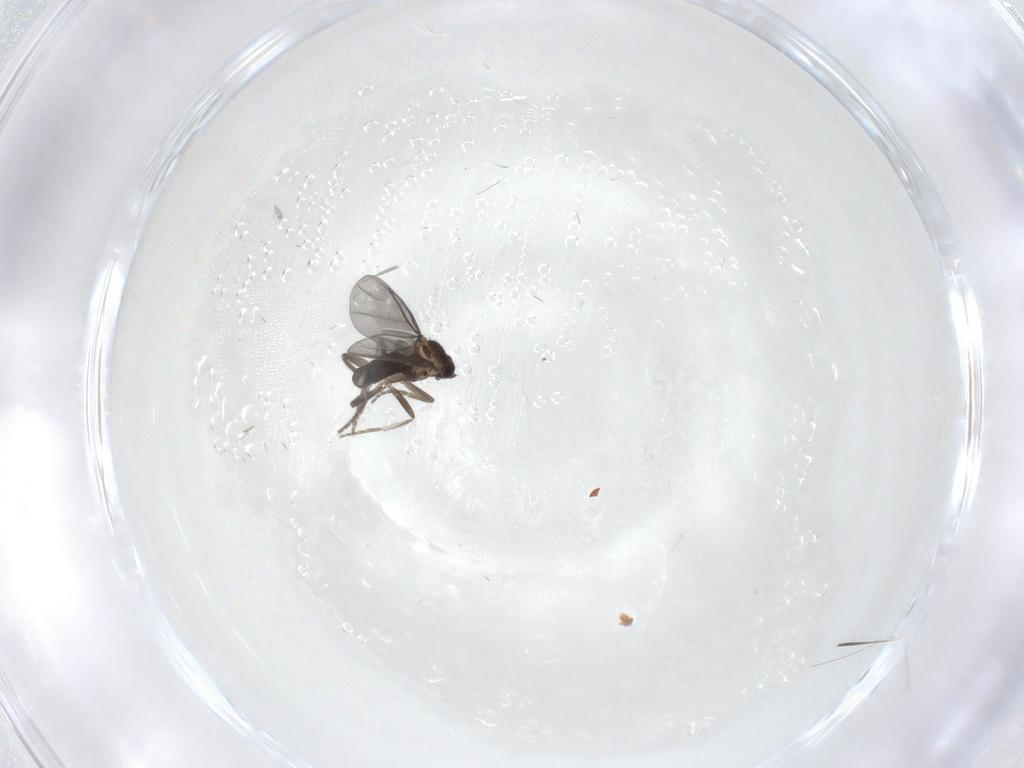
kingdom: Animalia
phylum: Arthropoda
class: Insecta
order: Diptera
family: Phoridae
